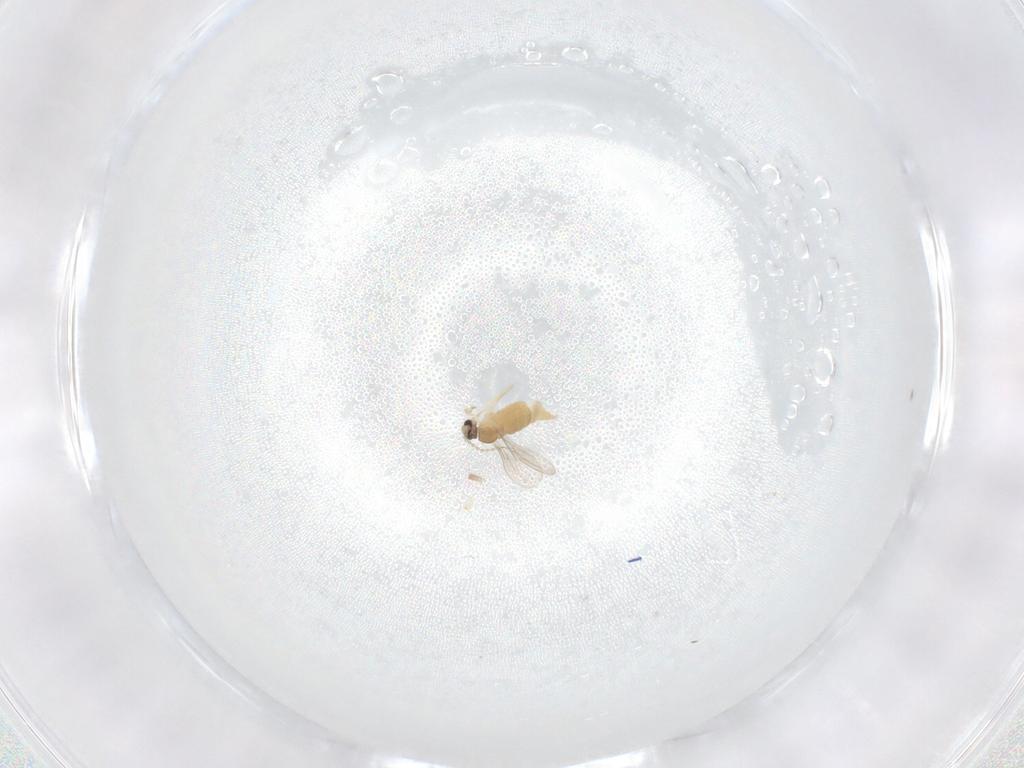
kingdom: Animalia
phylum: Arthropoda
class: Insecta
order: Diptera
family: Cecidomyiidae
